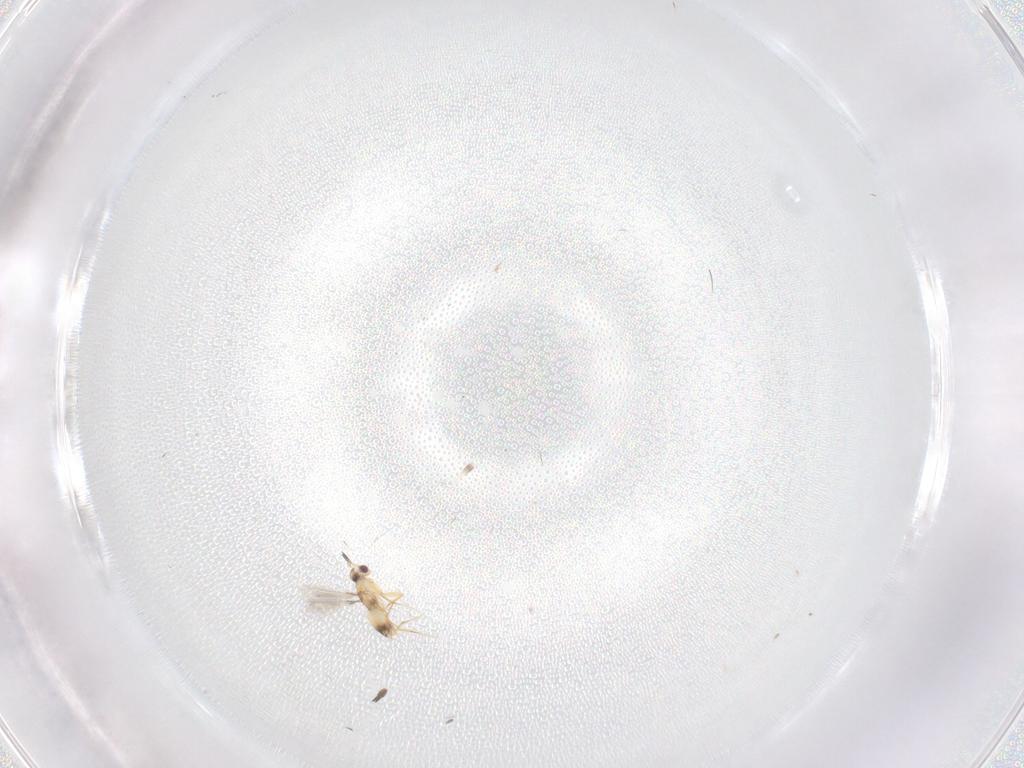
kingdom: Animalia
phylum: Arthropoda
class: Insecta
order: Hymenoptera
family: Mymaridae
